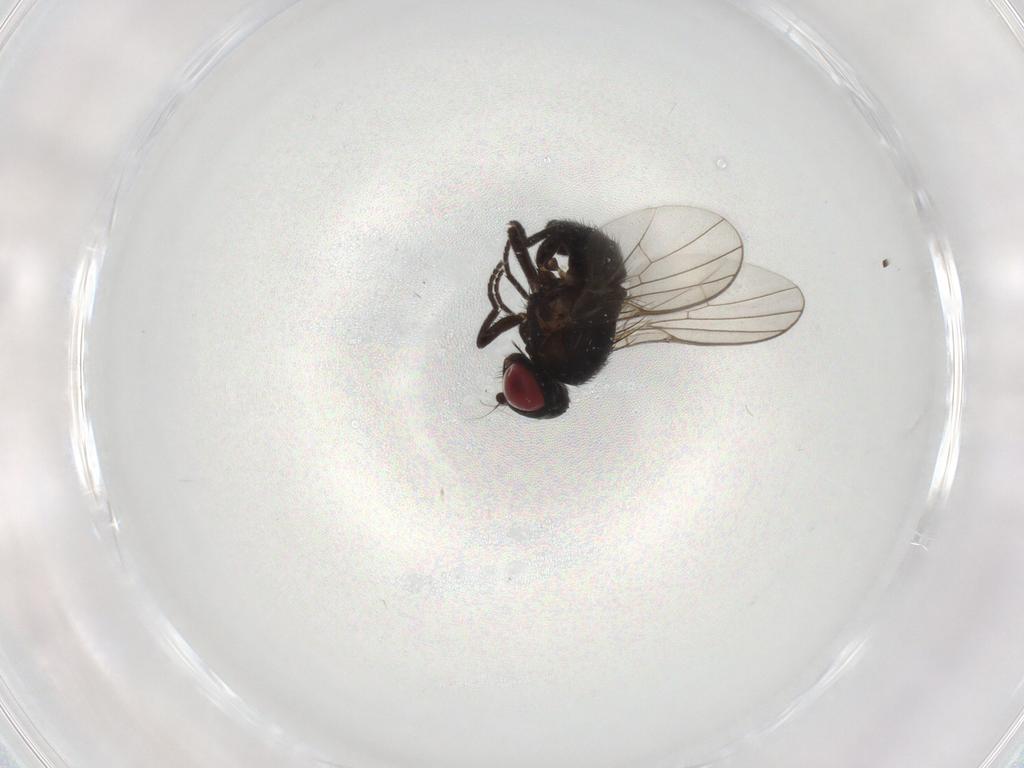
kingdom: Animalia
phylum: Arthropoda
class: Insecta
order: Diptera
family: Agromyzidae
